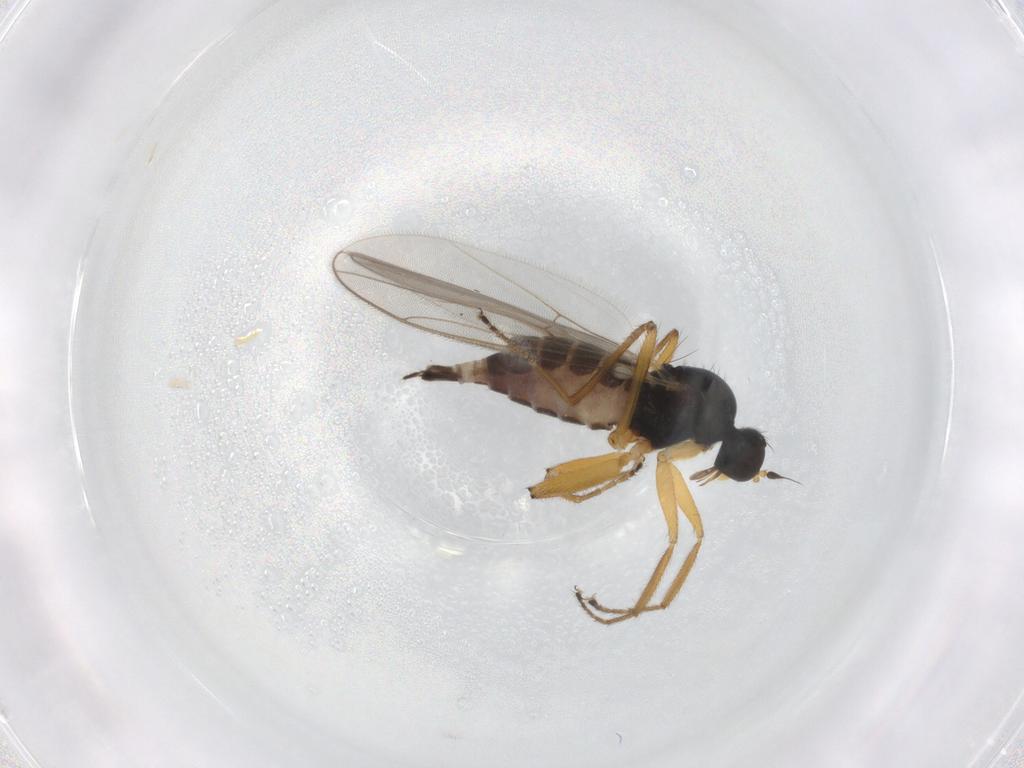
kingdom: Animalia
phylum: Arthropoda
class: Insecta
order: Diptera
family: Hybotidae
